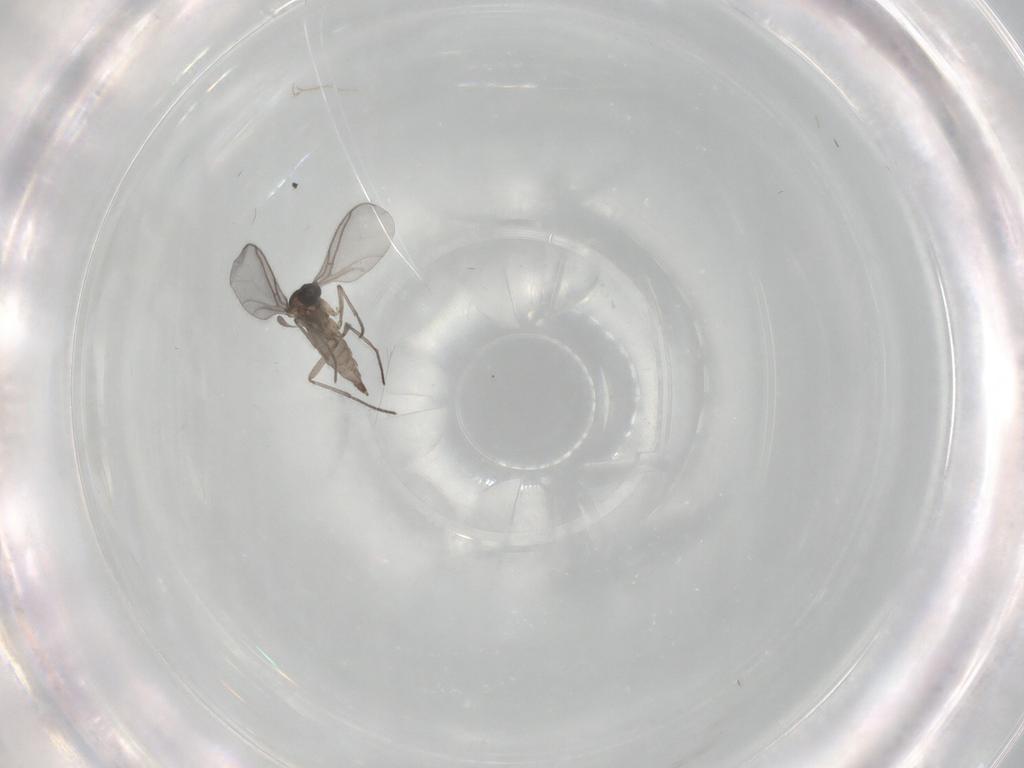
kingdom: Animalia
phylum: Arthropoda
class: Insecta
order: Diptera
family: Sciaridae
